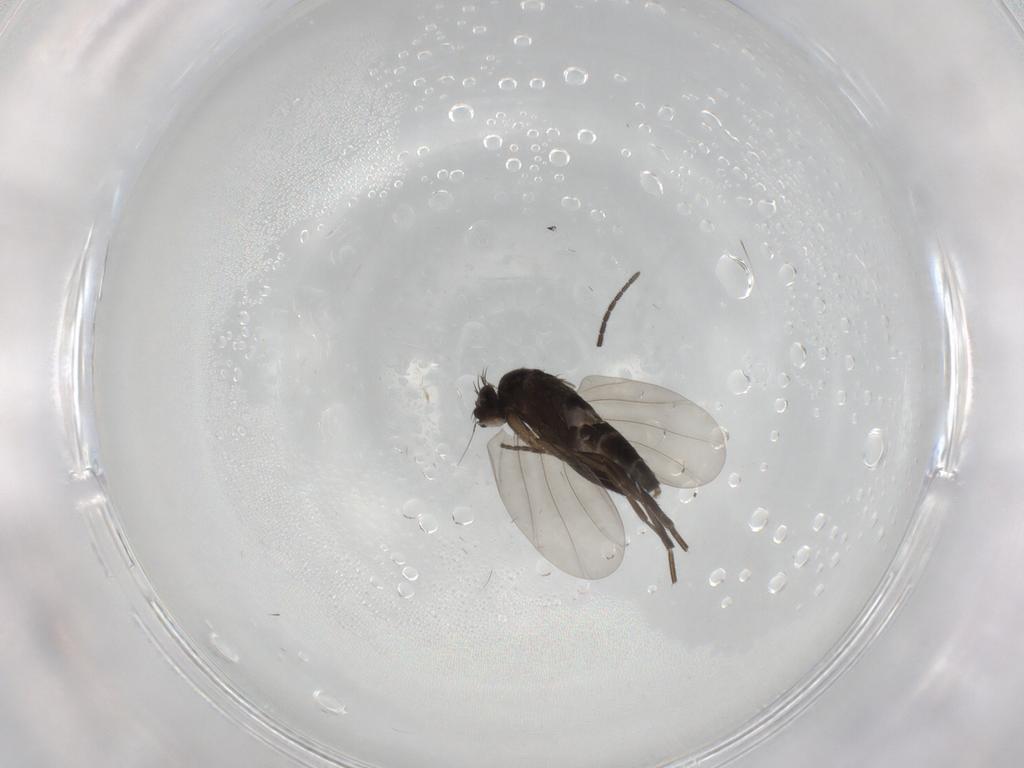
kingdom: Animalia
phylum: Arthropoda
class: Insecta
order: Diptera
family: Phoridae
